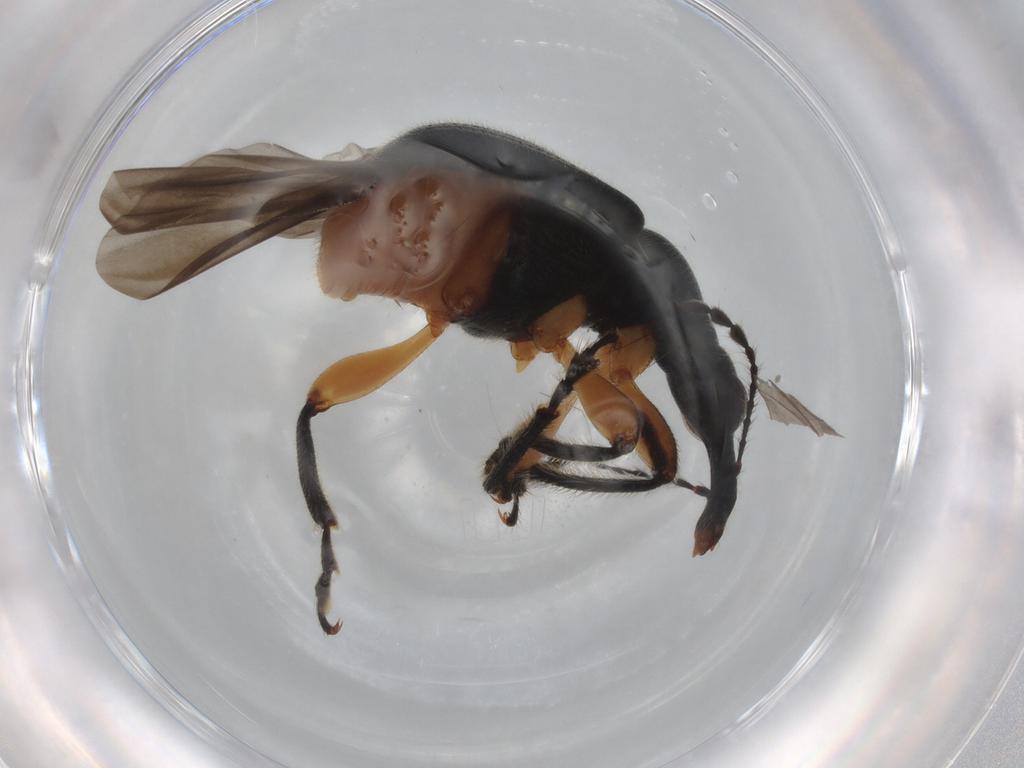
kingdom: Animalia
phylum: Arthropoda
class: Insecta
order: Coleoptera
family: Attelabidae
